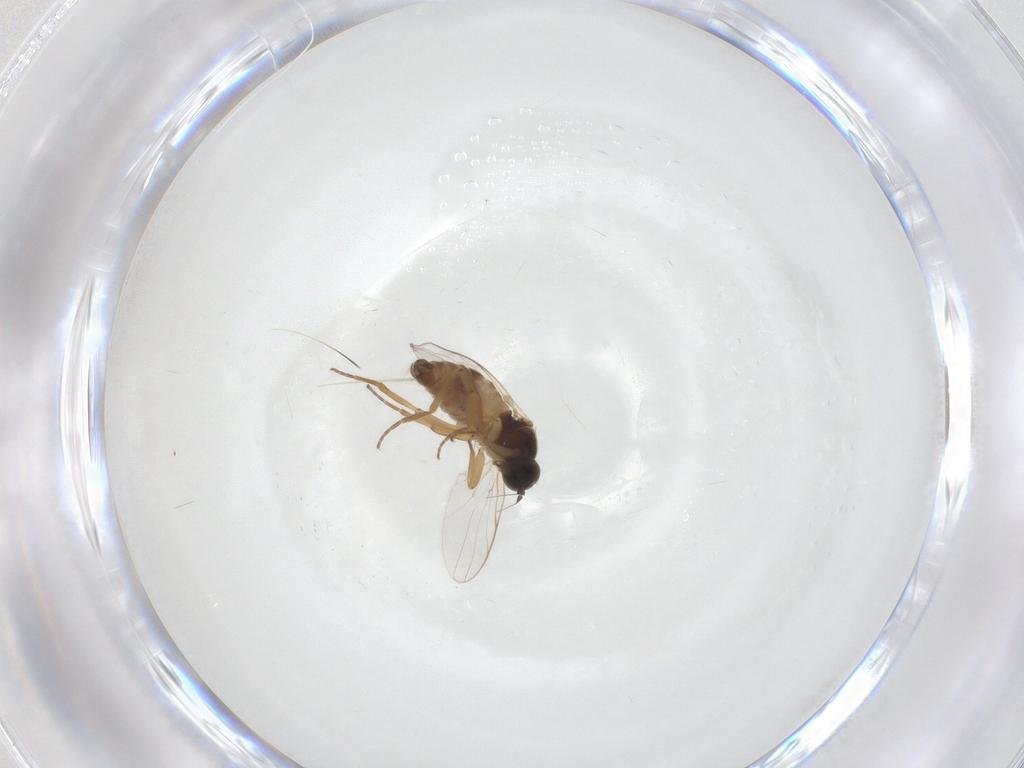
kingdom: Animalia
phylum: Arthropoda
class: Insecta
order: Diptera
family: Hybotidae
